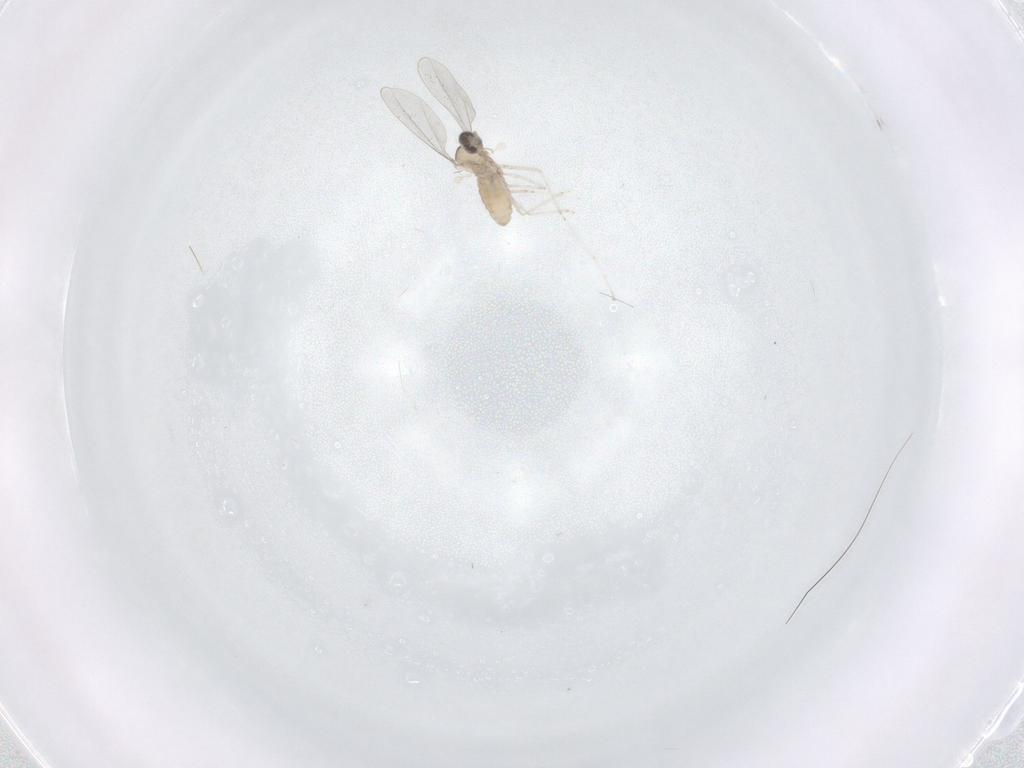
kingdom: Animalia
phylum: Arthropoda
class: Insecta
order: Diptera
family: Cecidomyiidae
